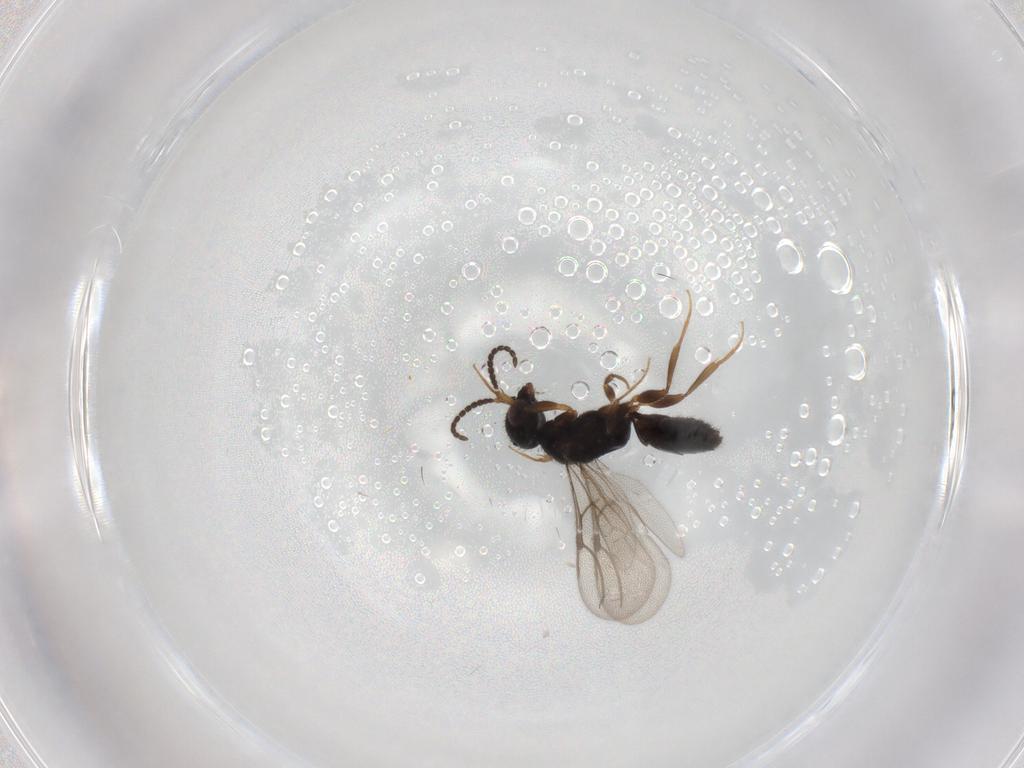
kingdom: Animalia
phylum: Arthropoda
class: Insecta
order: Hymenoptera
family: Bethylidae
